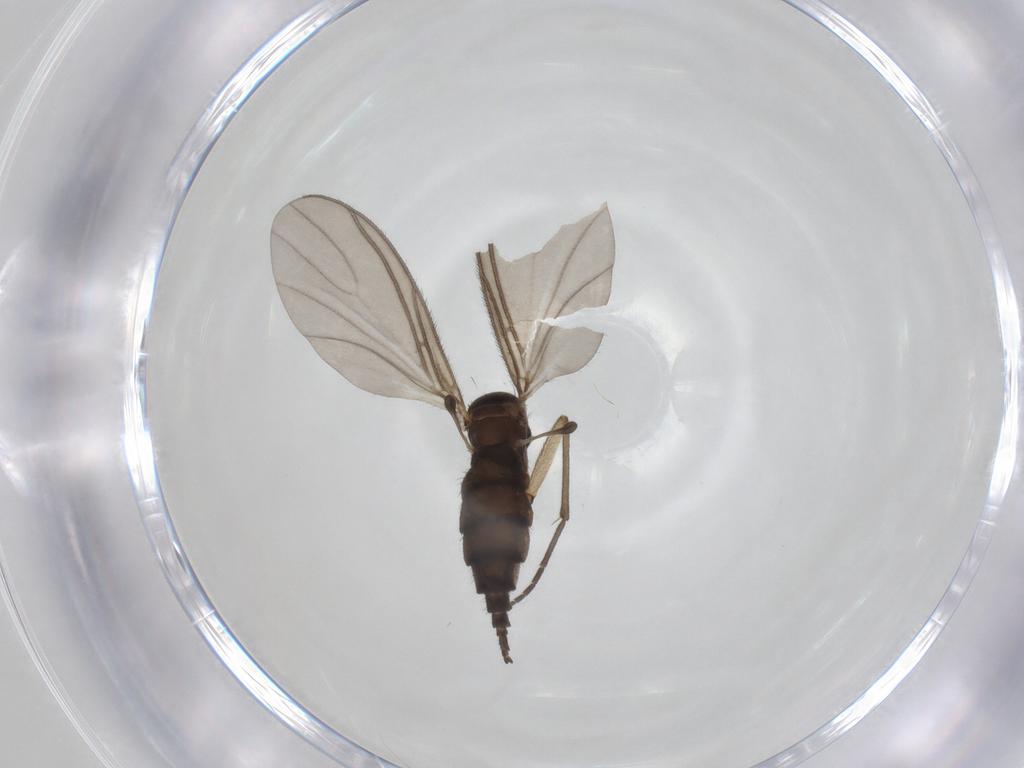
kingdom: Animalia
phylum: Arthropoda
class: Insecta
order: Diptera
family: Sciaridae
